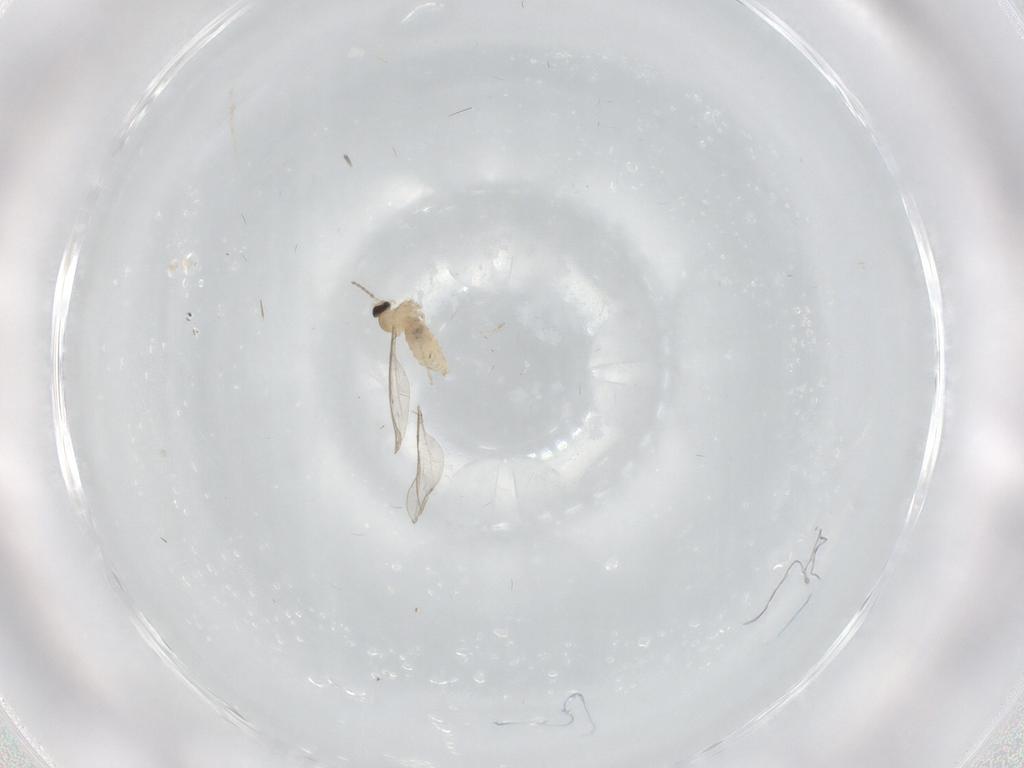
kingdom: Animalia
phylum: Arthropoda
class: Insecta
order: Diptera
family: Cecidomyiidae
